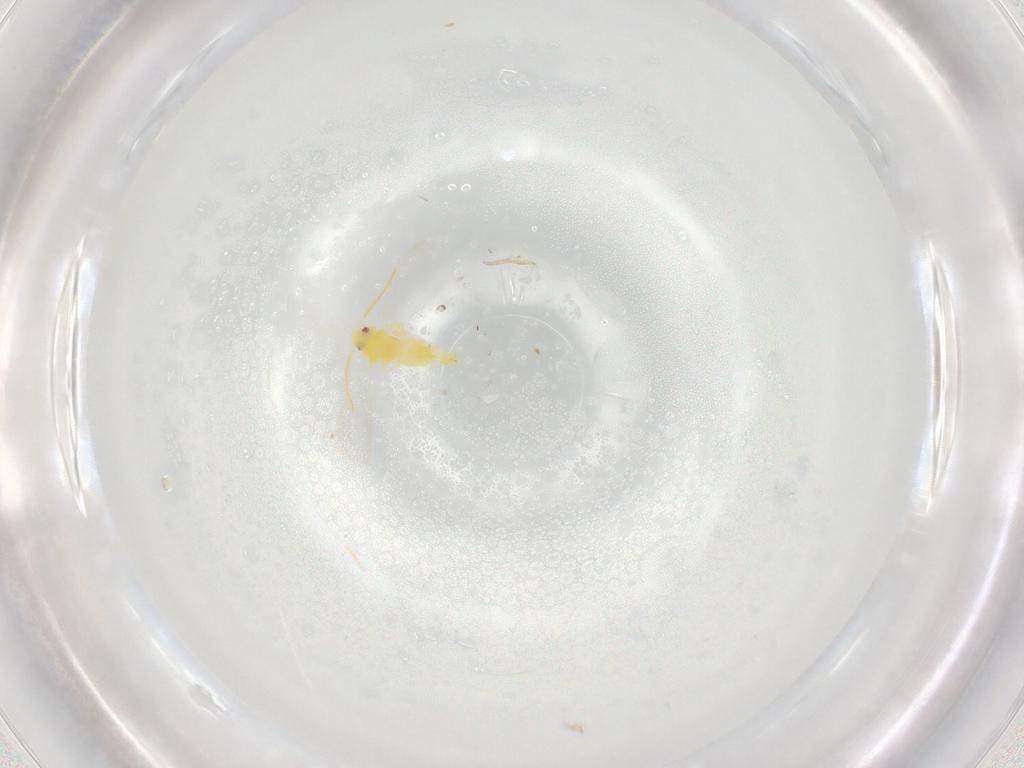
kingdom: Animalia
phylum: Arthropoda
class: Insecta
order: Hemiptera
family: Aleyrodidae
